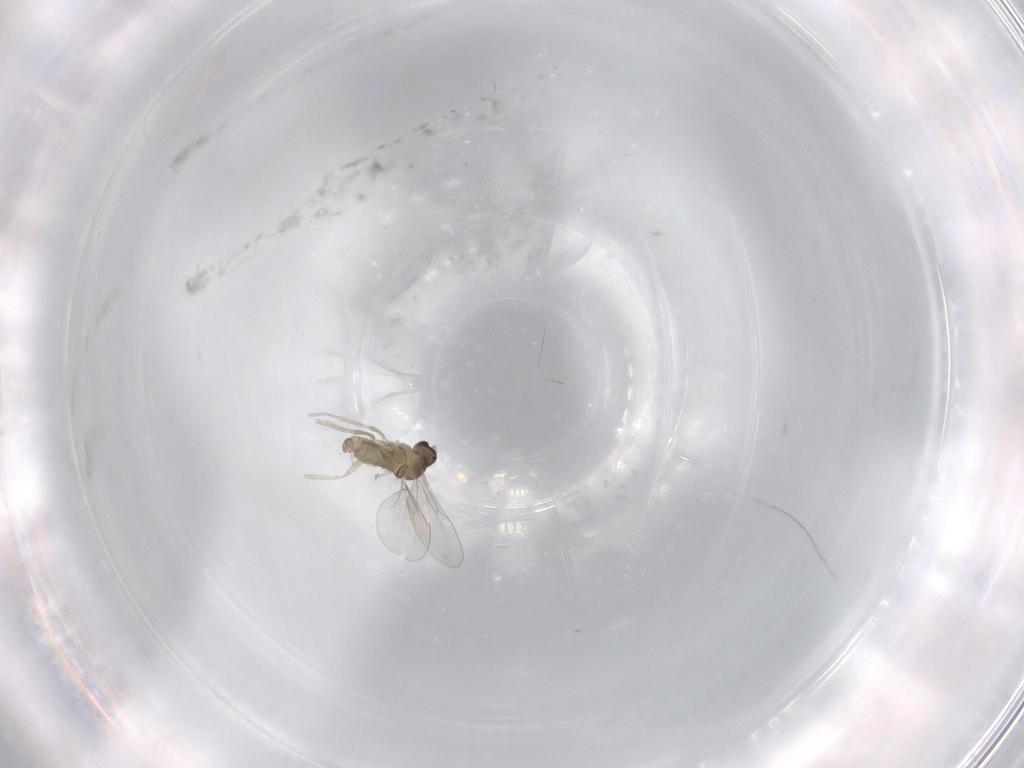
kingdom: Animalia
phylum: Arthropoda
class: Insecta
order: Diptera
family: Cecidomyiidae
